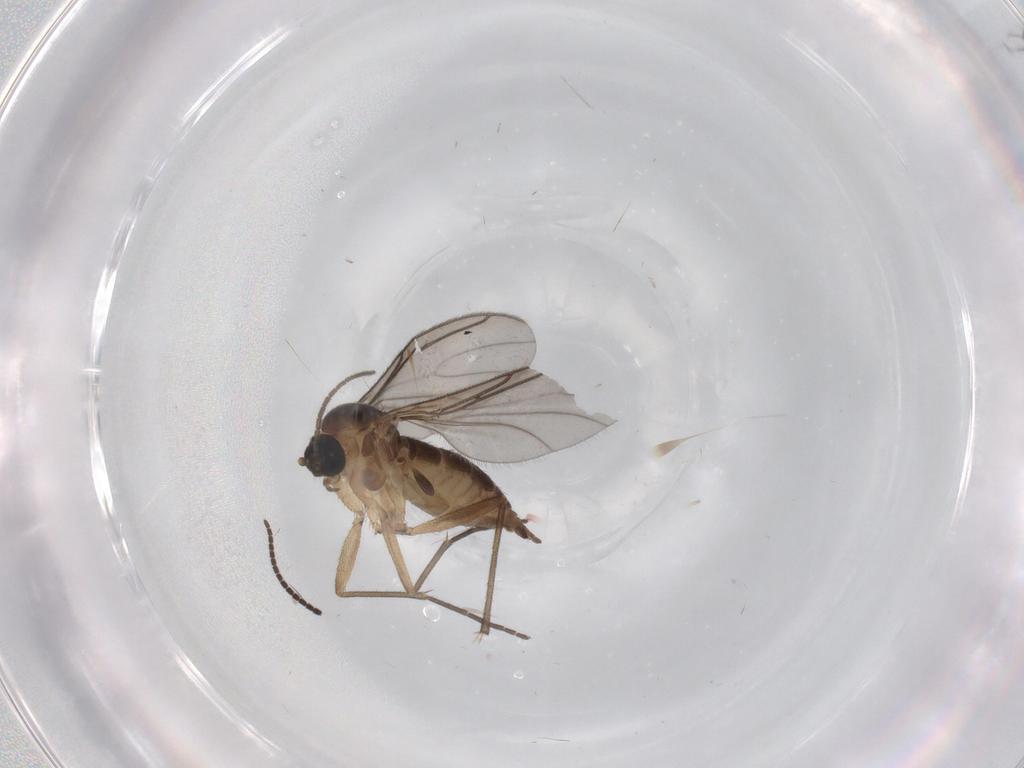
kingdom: Animalia
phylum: Arthropoda
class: Insecta
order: Diptera
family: Sciaridae
